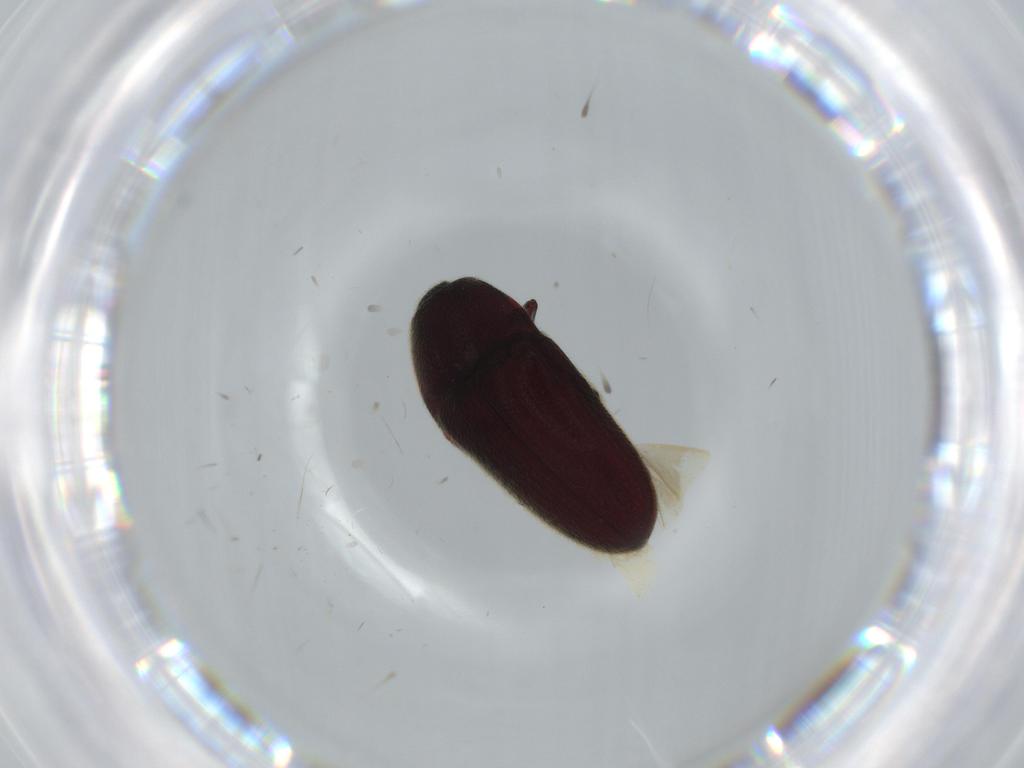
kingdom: Animalia
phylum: Arthropoda
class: Insecta
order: Coleoptera
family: Throscidae
